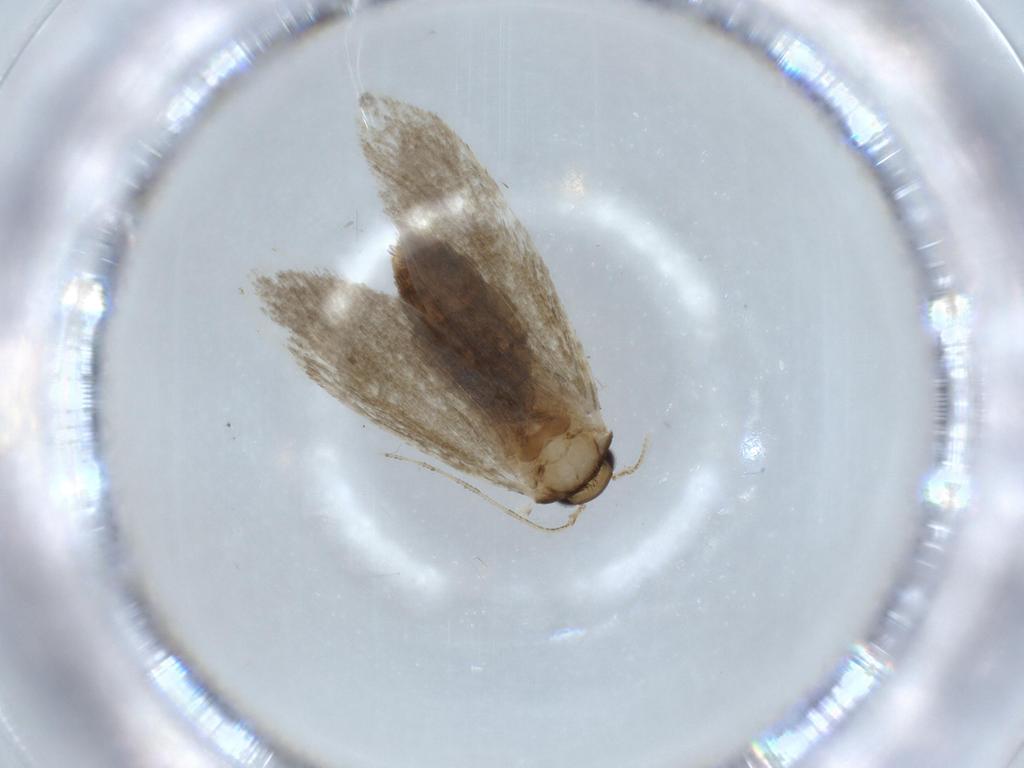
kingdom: Animalia
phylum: Arthropoda
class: Insecta
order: Lepidoptera
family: Tineidae
